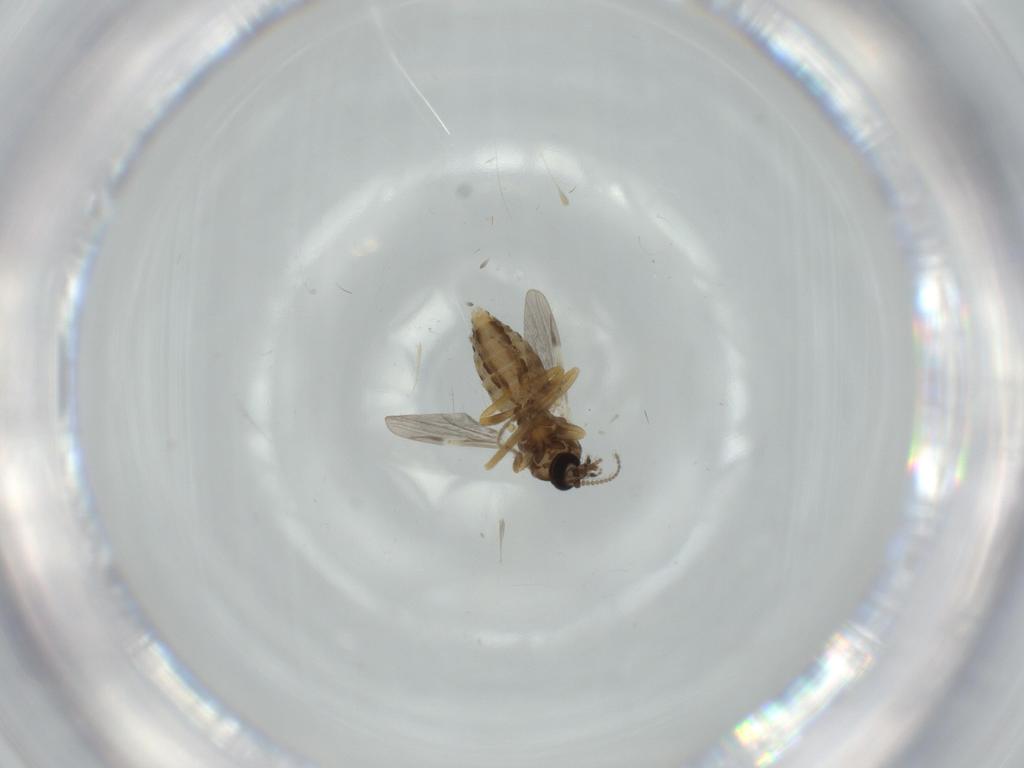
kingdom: Animalia
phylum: Arthropoda
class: Insecta
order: Diptera
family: Ceratopogonidae
